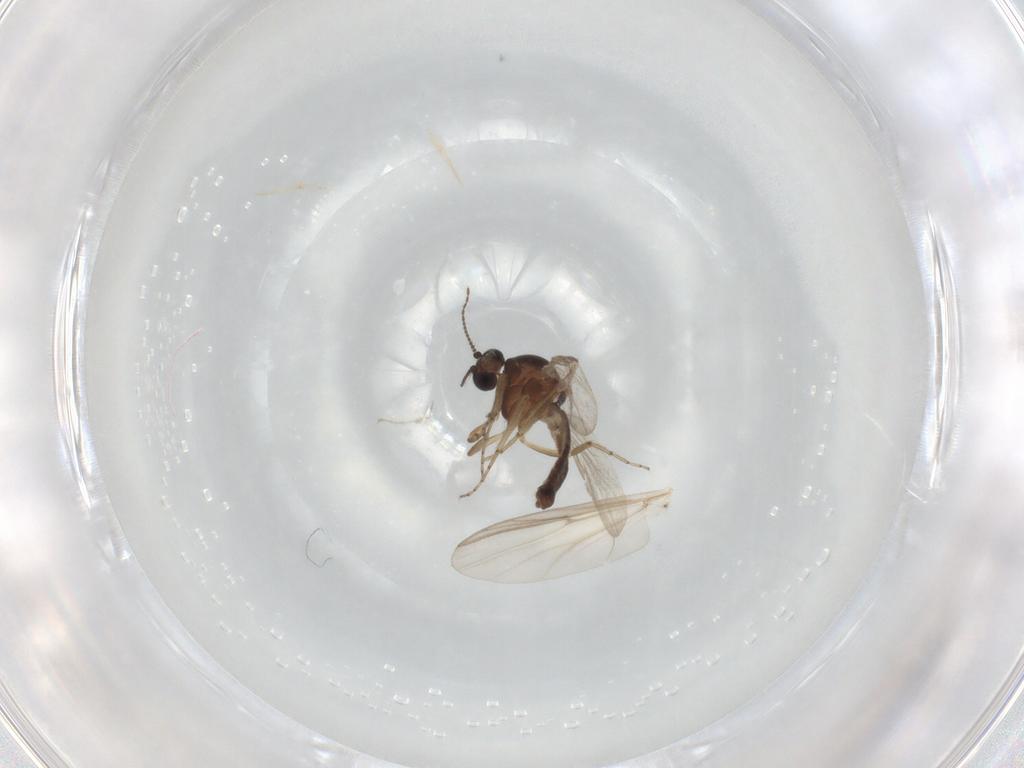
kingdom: Animalia
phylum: Arthropoda
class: Insecta
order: Diptera
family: Ceratopogonidae
